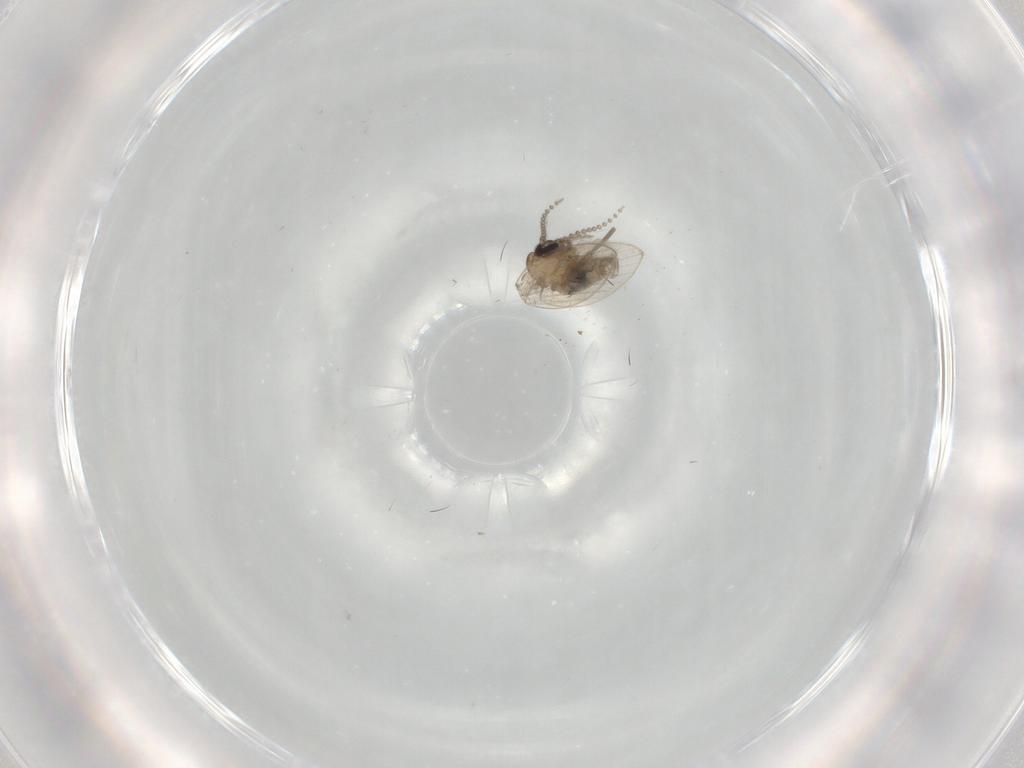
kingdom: Animalia
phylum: Arthropoda
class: Insecta
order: Diptera
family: Psychodidae
